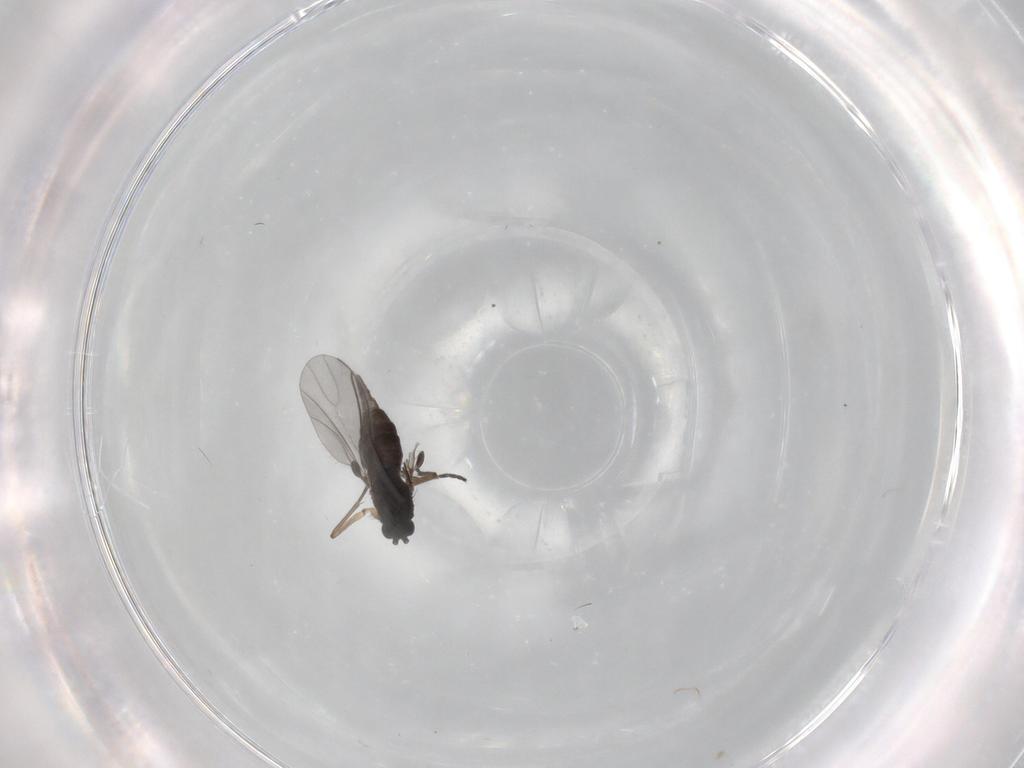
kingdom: Animalia
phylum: Arthropoda
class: Insecta
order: Diptera
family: Sciaridae
